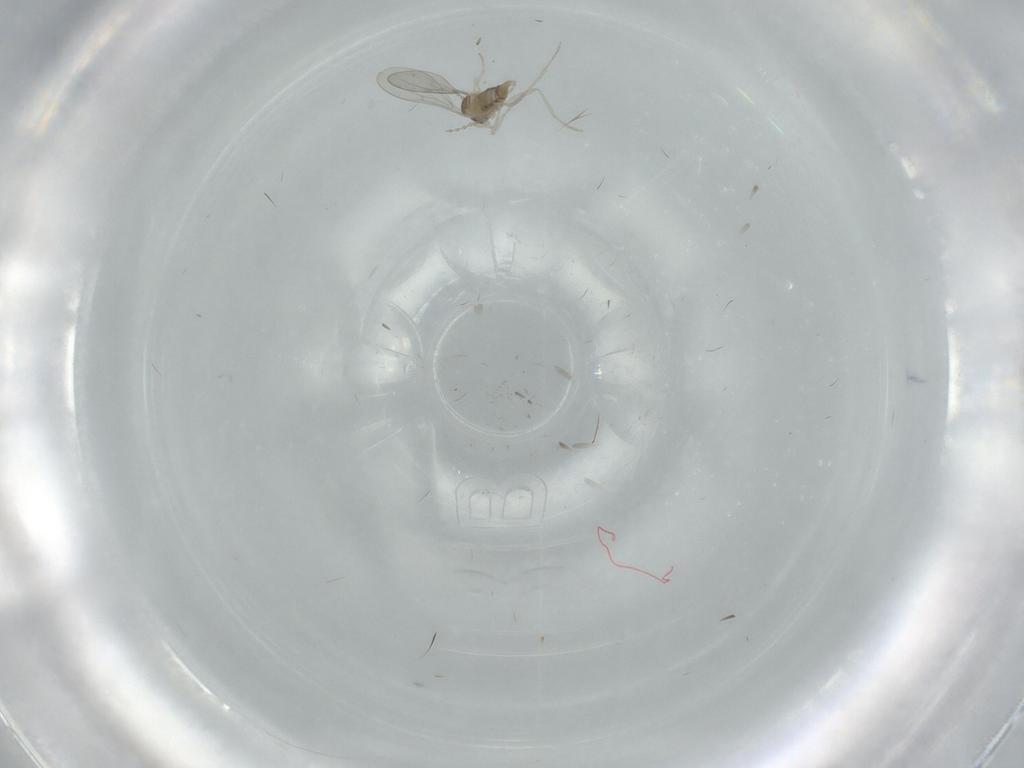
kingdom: Animalia
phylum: Arthropoda
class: Insecta
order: Diptera
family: Cecidomyiidae
